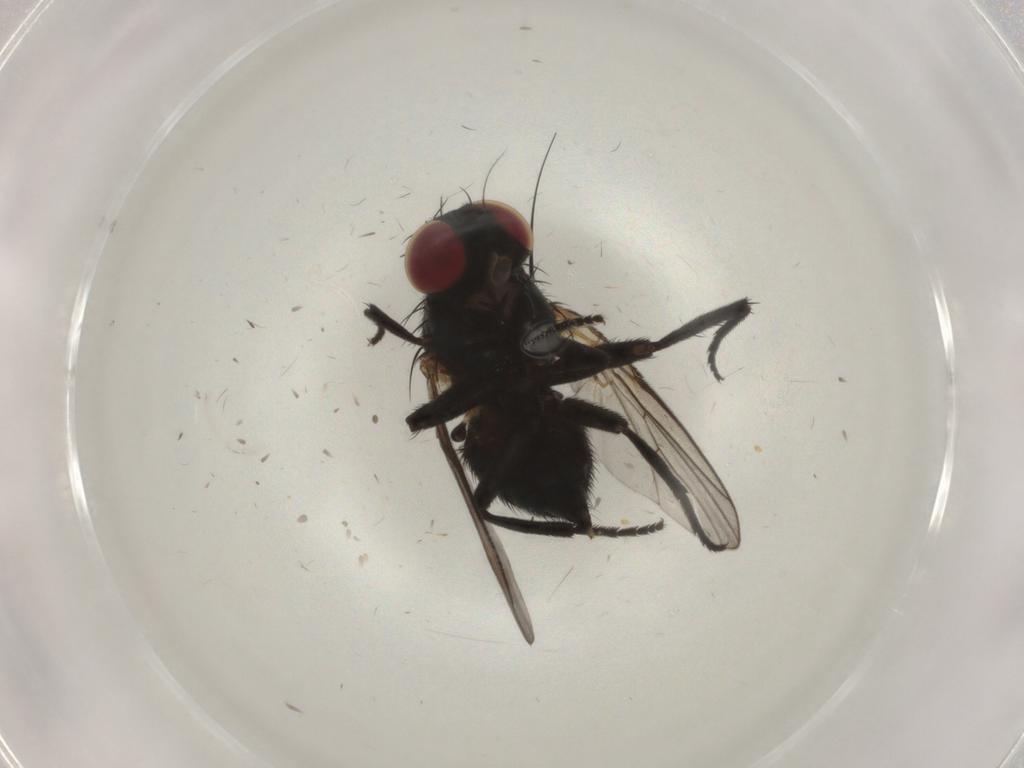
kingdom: Animalia
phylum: Arthropoda
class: Insecta
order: Diptera
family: Agromyzidae
